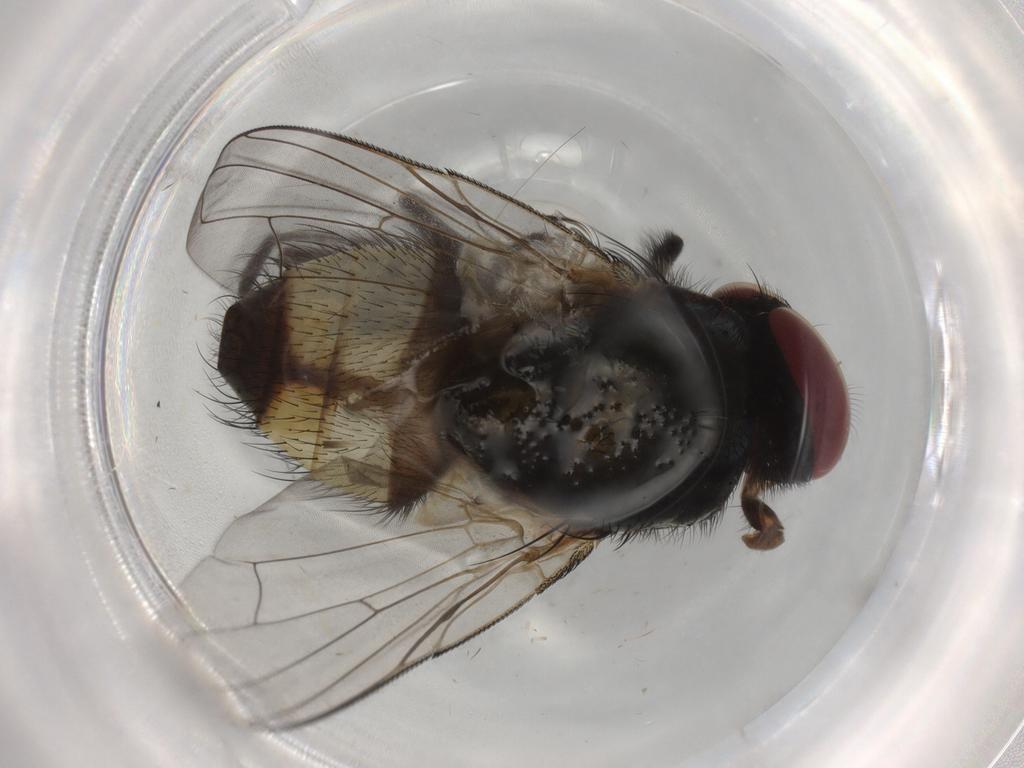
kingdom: Animalia
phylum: Arthropoda
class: Insecta
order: Diptera
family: Muscidae
